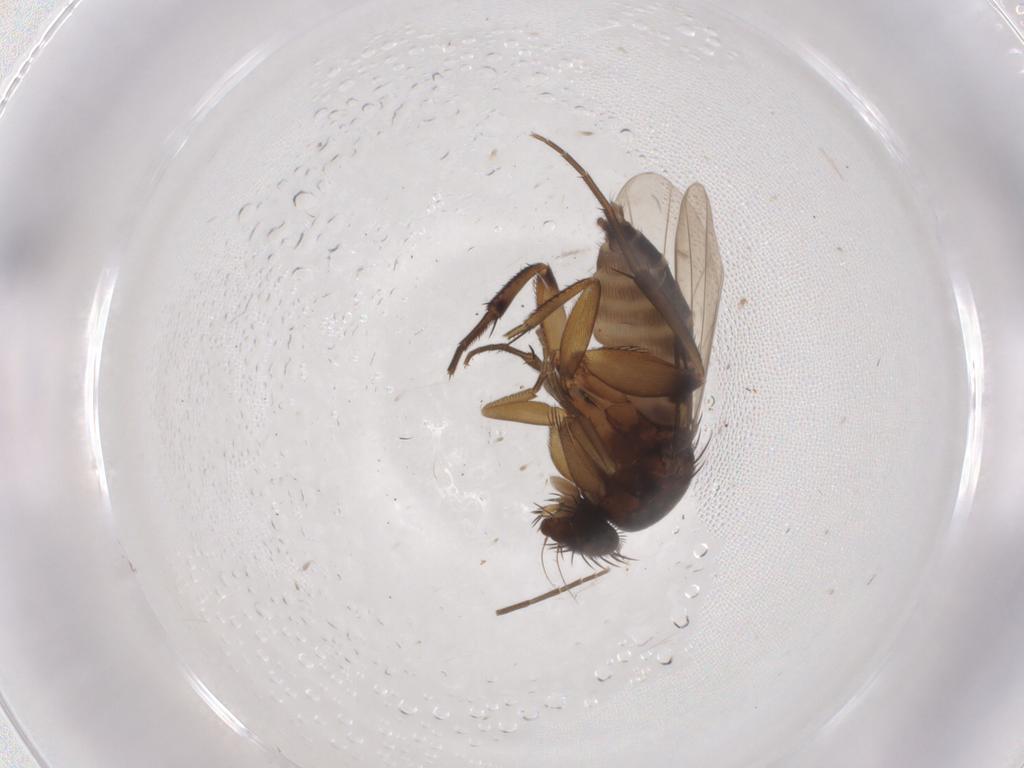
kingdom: Animalia
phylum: Arthropoda
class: Insecta
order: Diptera
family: Phoridae
